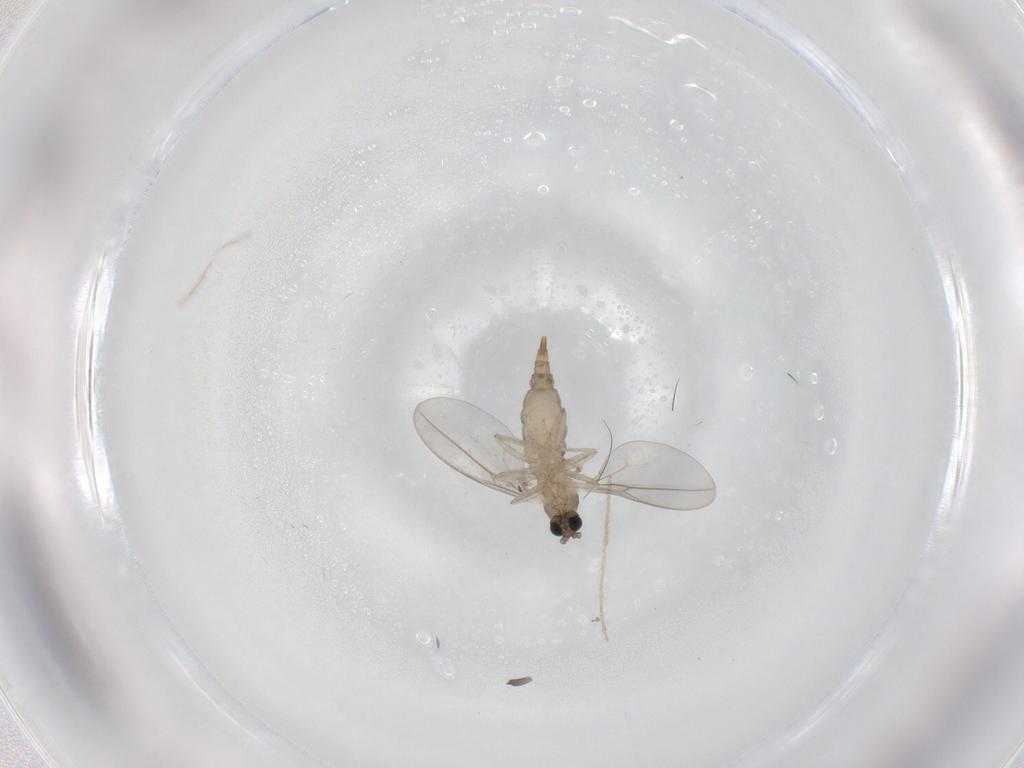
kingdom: Animalia
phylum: Arthropoda
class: Insecta
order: Diptera
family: Cecidomyiidae
